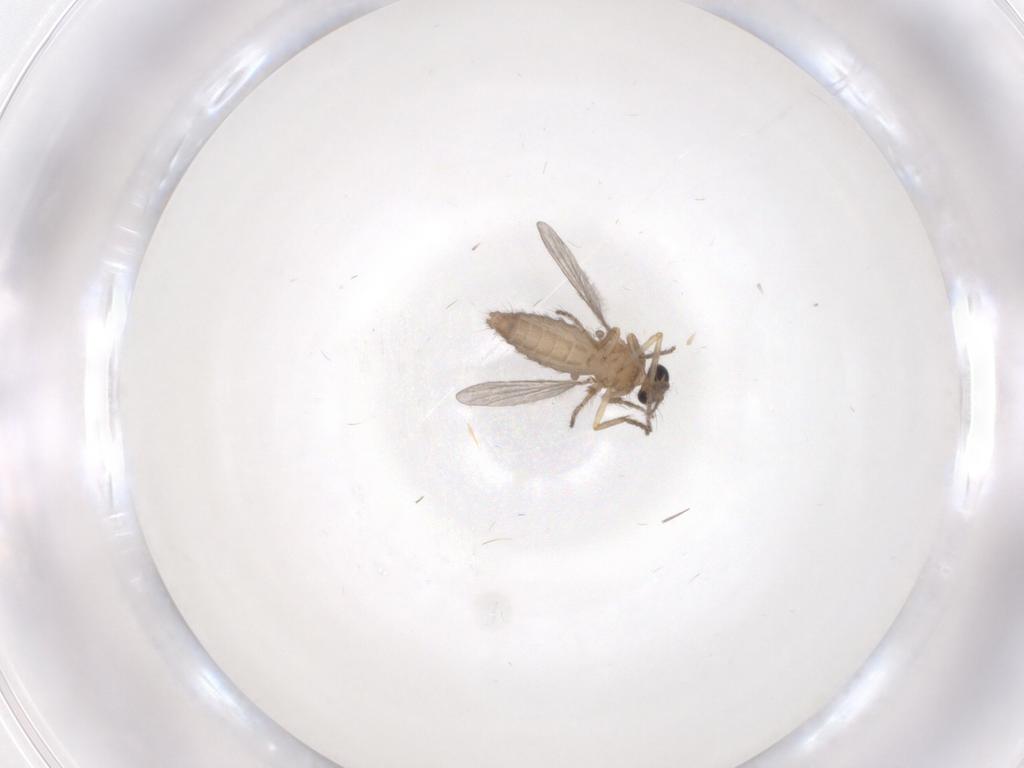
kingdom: Animalia
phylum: Arthropoda
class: Insecta
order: Diptera
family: Ceratopogonidae
